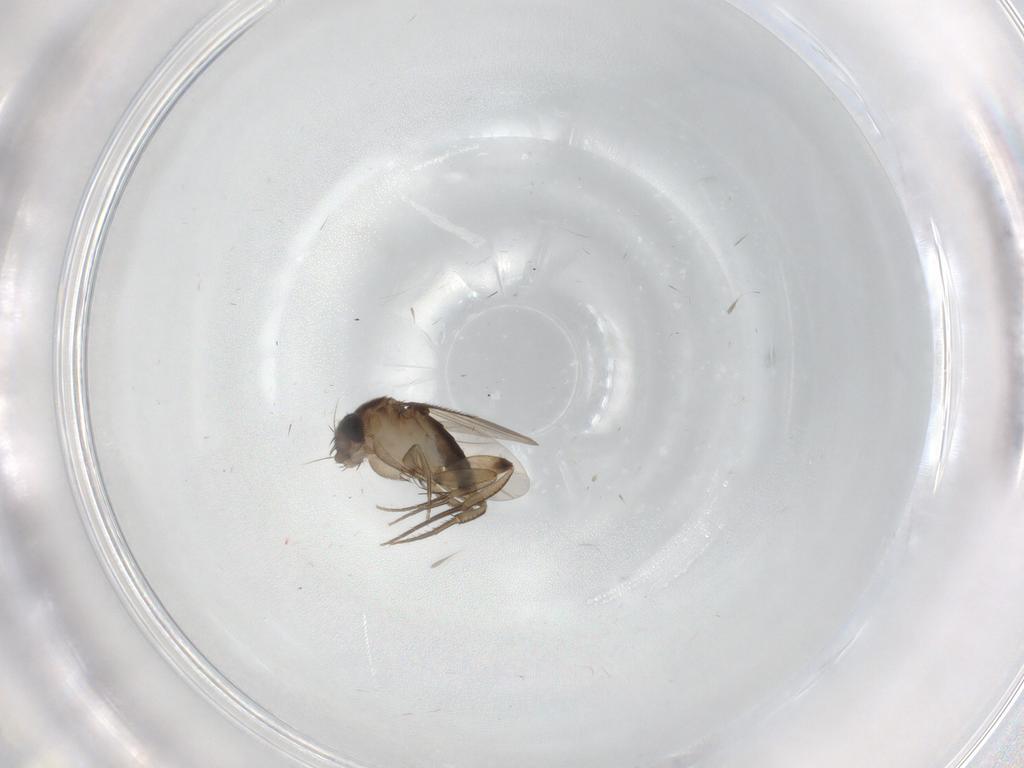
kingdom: Animalia
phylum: Arthropoda
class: Insecta
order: Diptera
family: Phoridae
